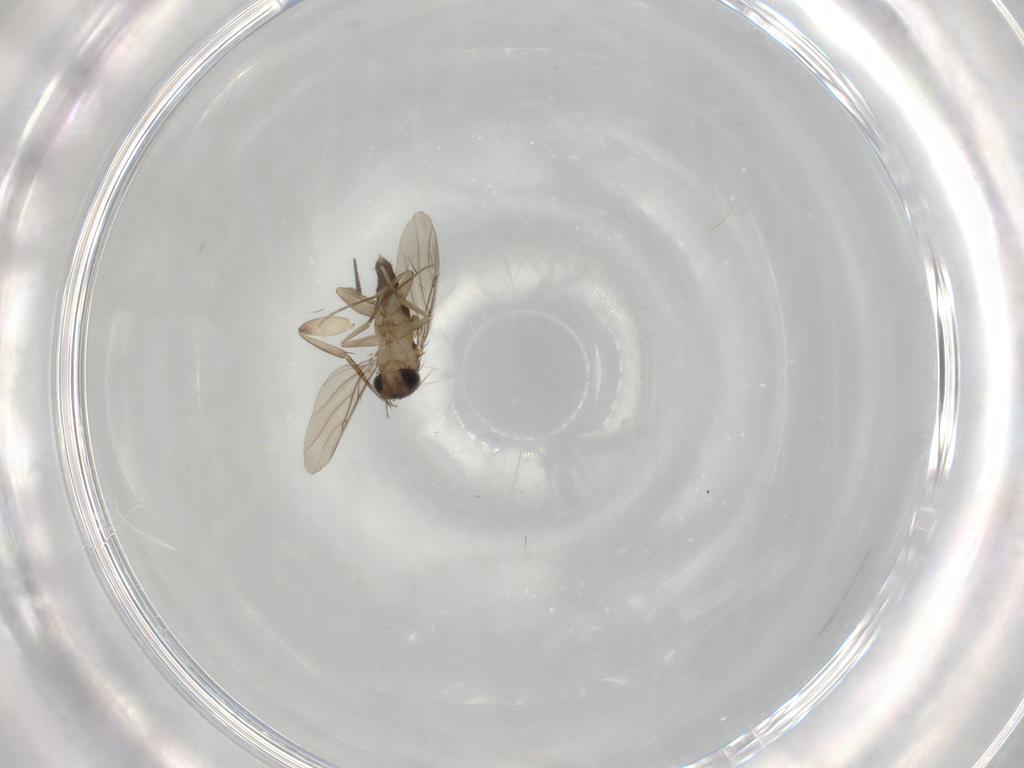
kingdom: Animalia
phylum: Arthropoda
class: Insecta
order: Diptera
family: Phoridae
